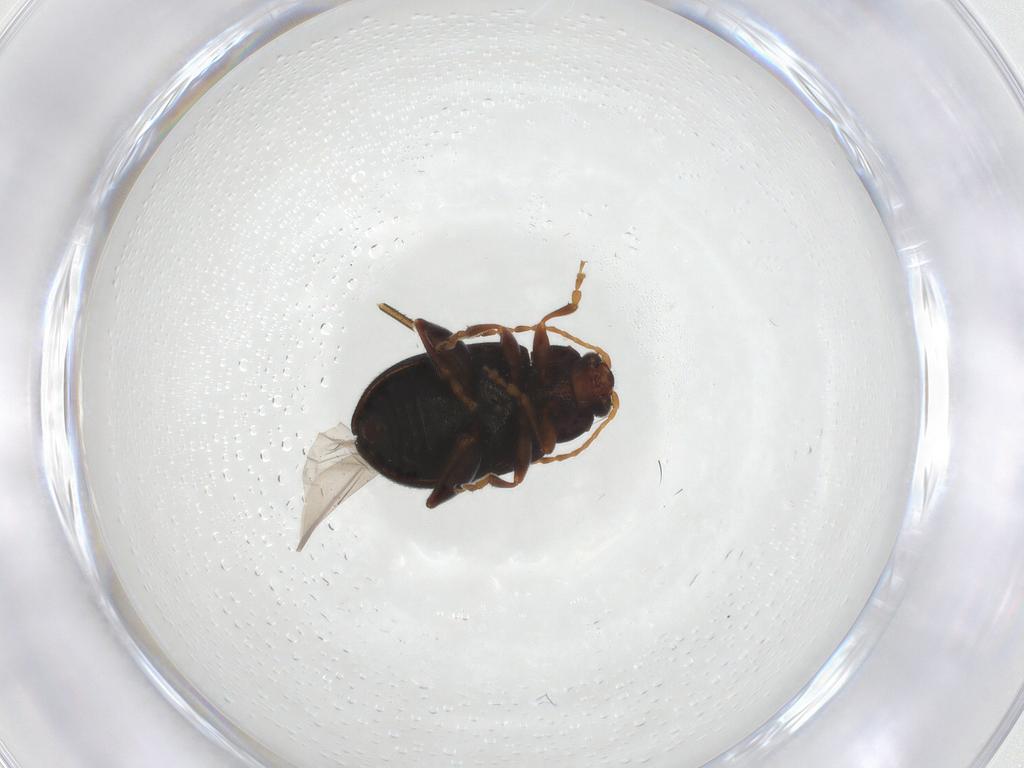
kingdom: Animalia
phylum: Arthropoda
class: Insecta
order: Coleoptera
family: Chrysomelidae
